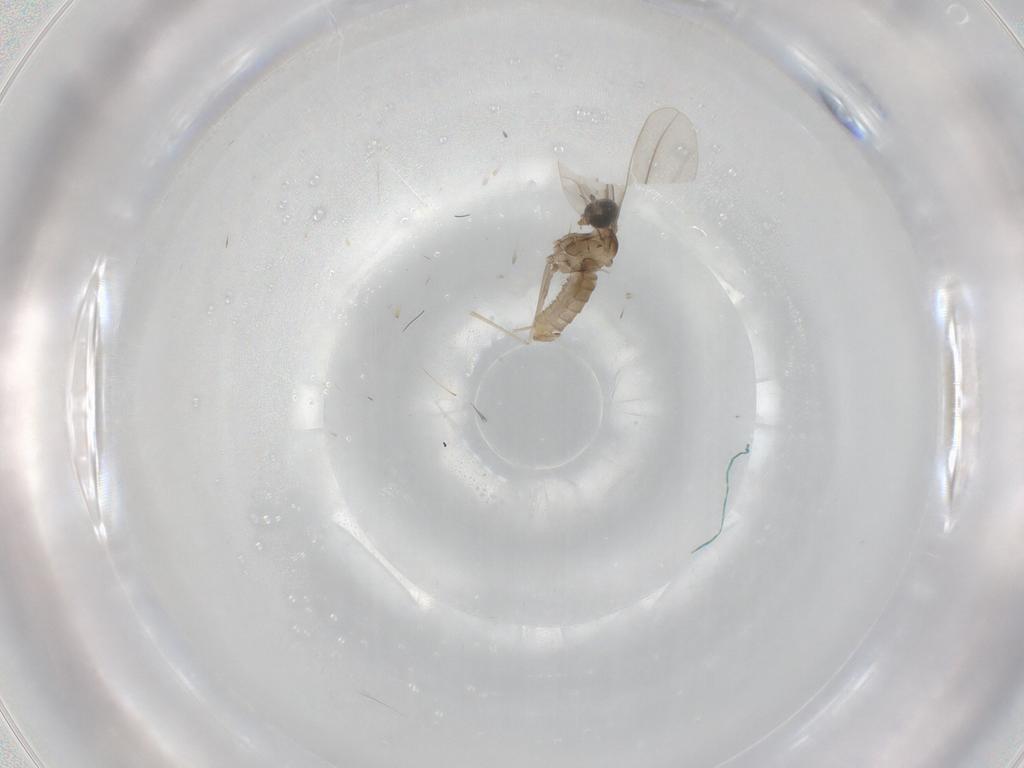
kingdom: Animalia
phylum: Arthropoda
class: Insecta
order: Diptera
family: Cecidomyiidae
